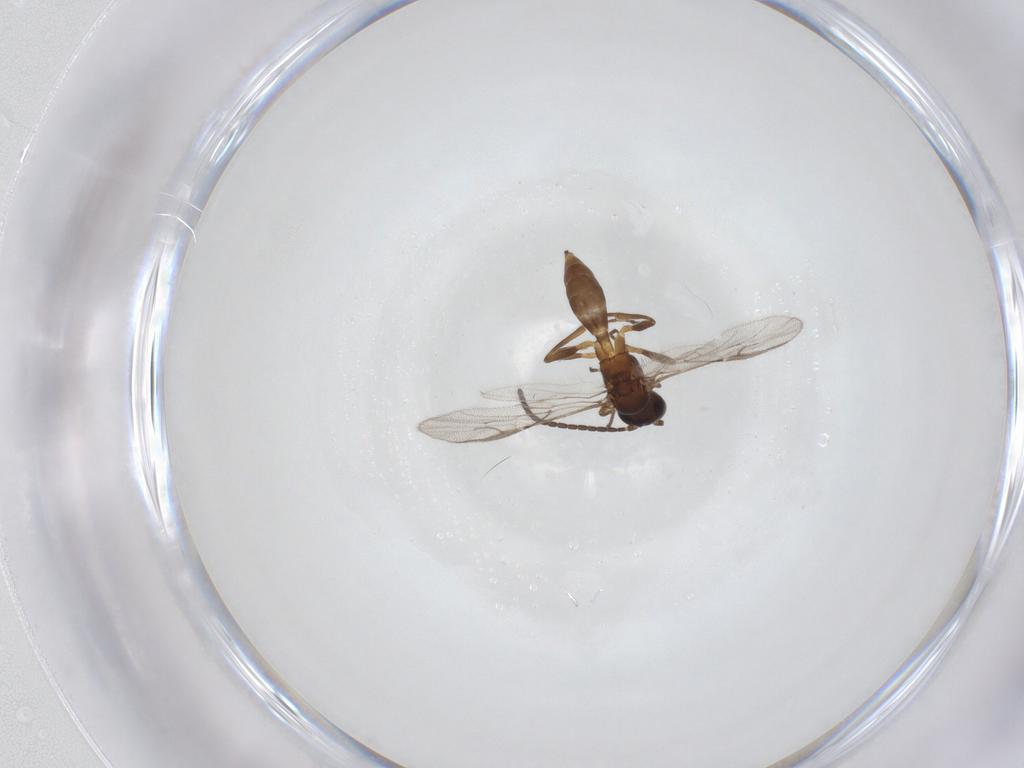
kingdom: Animalia
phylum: Arthropoda
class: Insecta
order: Hymenoptera
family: Braconidae
